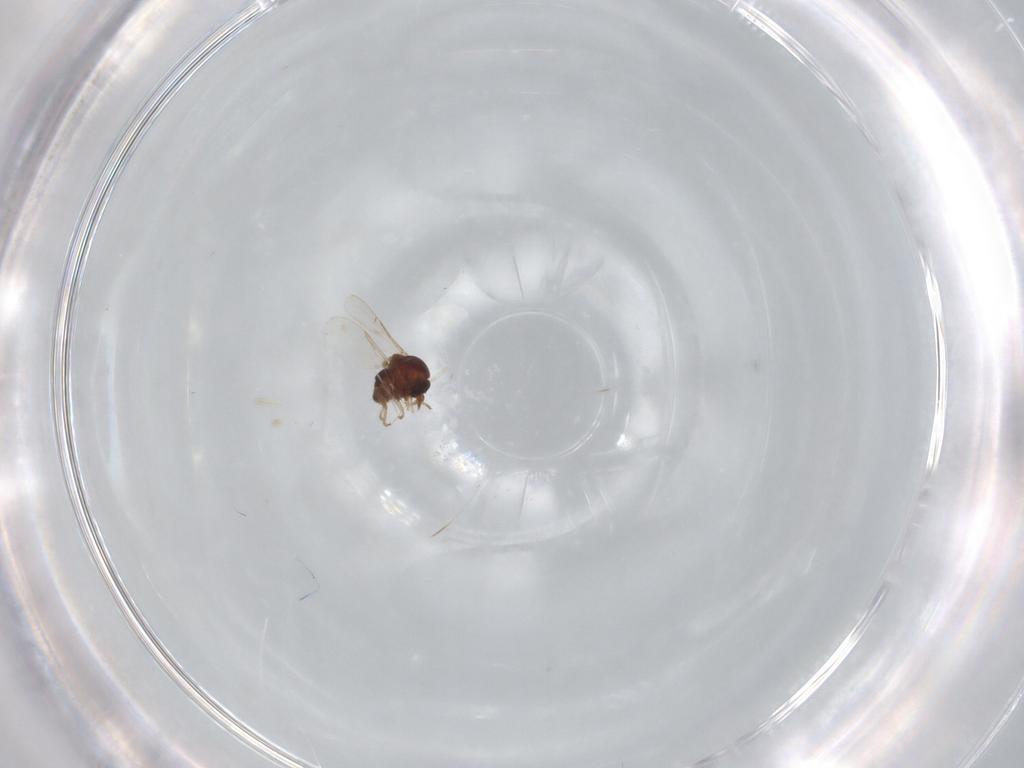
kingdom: Animalia
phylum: Arthropoda
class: Insecta
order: Diptera
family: Ceratopogonidae
